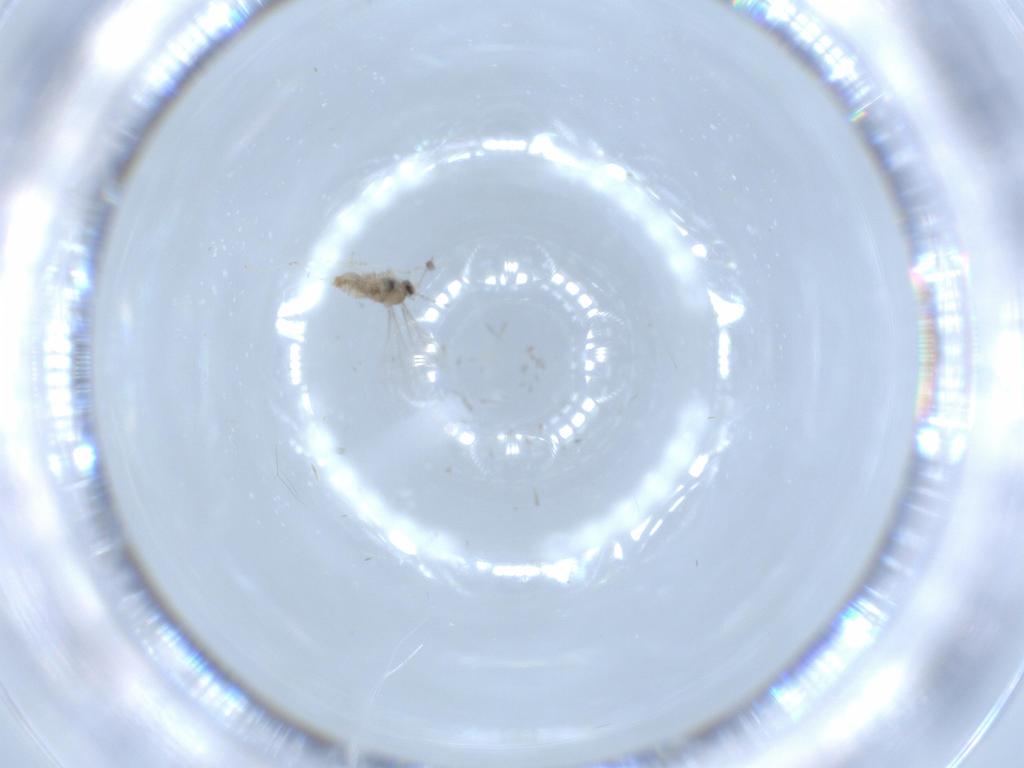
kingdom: Animalia
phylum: Arthropoda
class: Insecta
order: Diptera
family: Cecidomyiidae
